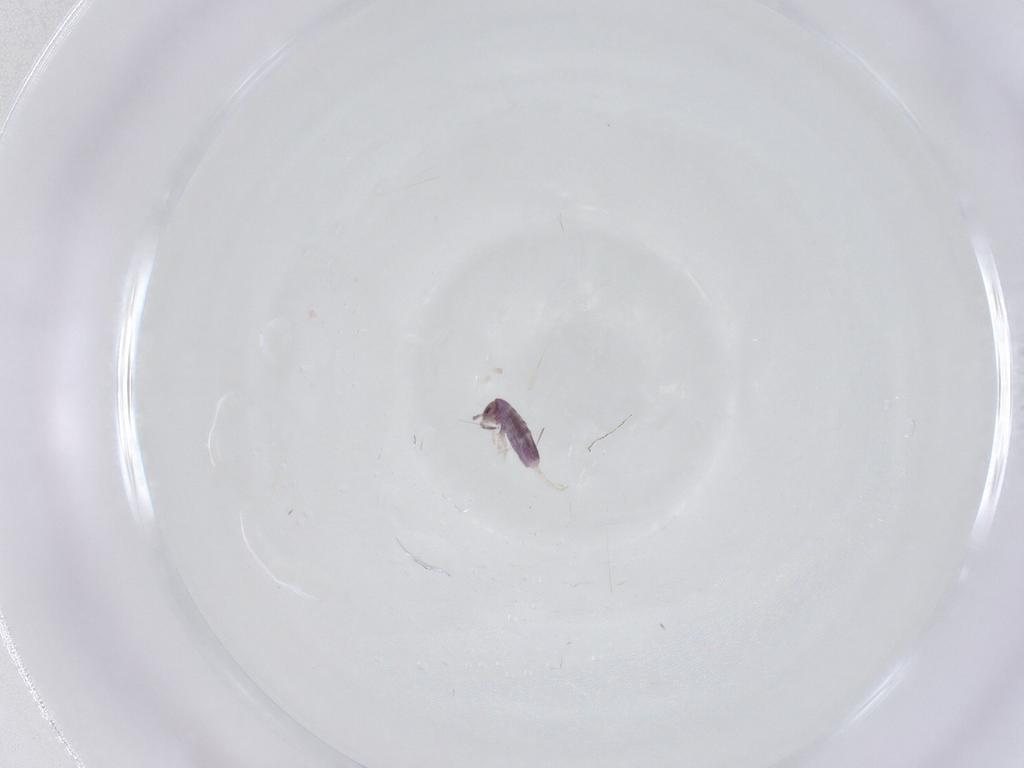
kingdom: Animalia
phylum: Arthropoda
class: Collembola
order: Entomobryomorpha
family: Entomobryidae
